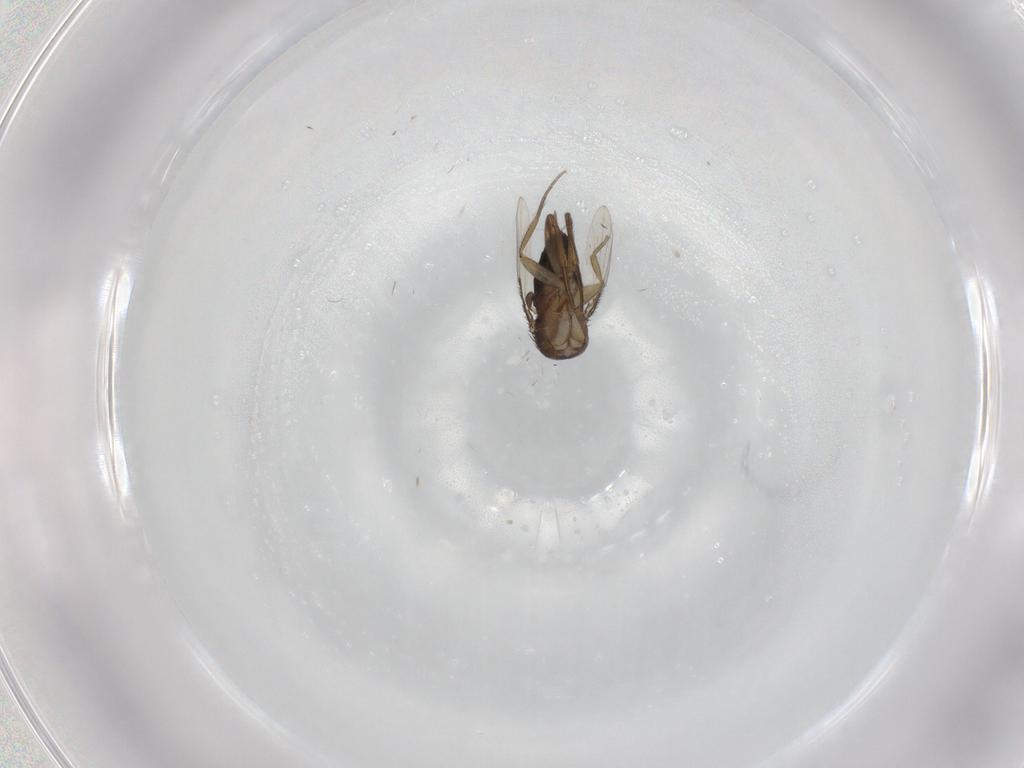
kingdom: Animalia
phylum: Arthropoda
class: Insecta
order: Diptera
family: Phoridae
